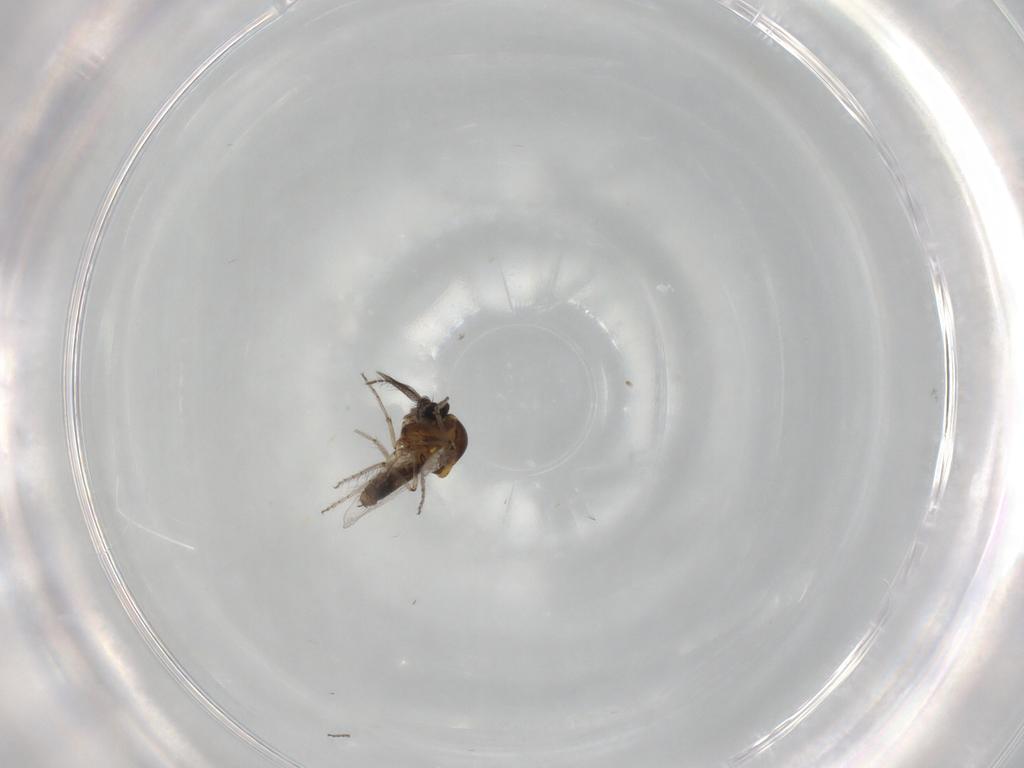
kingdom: Animalia
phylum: Arthropoda
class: Insecta
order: Diptera
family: Ceratopogonidae
